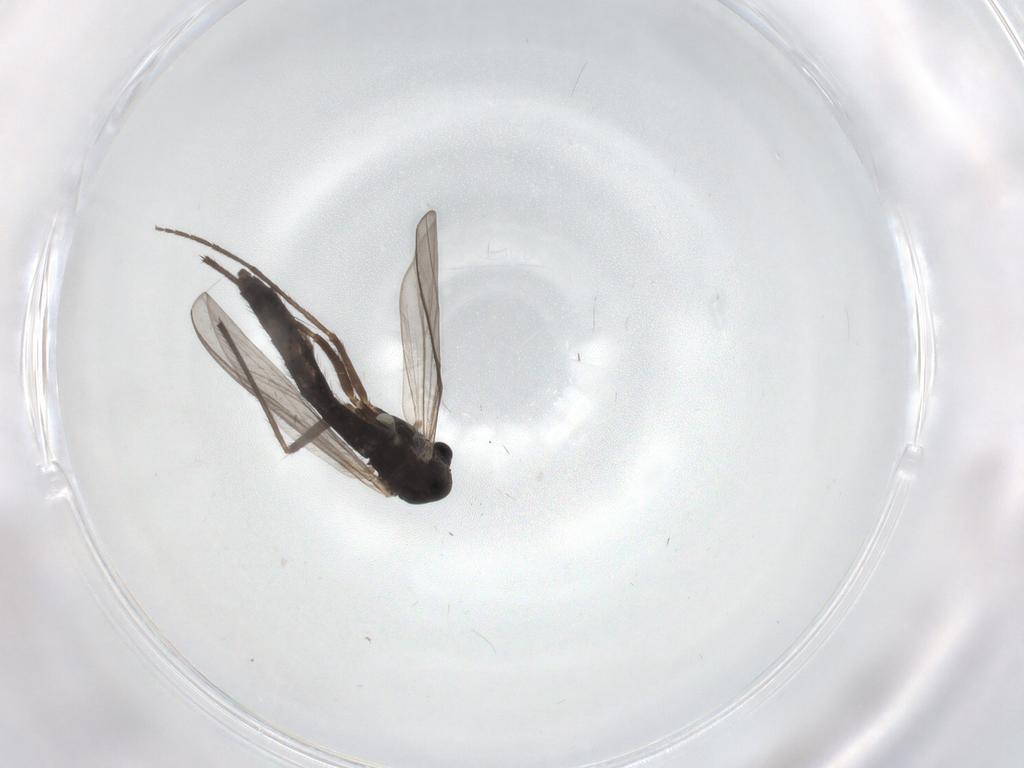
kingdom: Animalia
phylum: Arthropoda
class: Insecta
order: Diptera
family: Chironomidae
